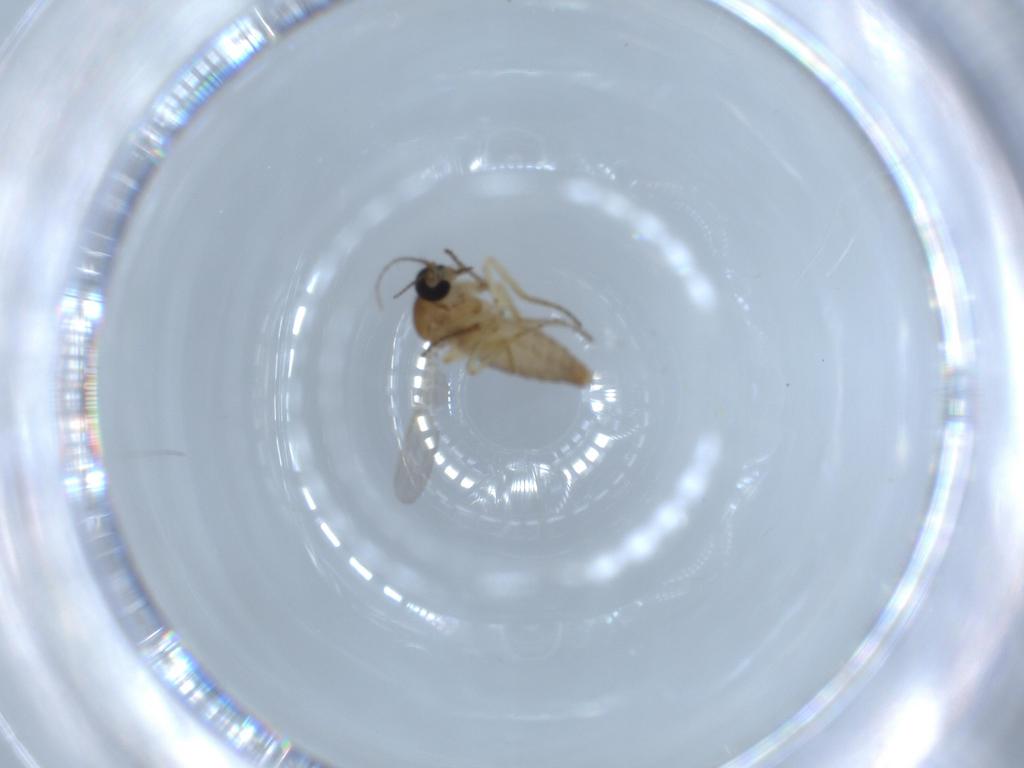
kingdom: Animalia
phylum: Arthropoda
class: Insecta
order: Diptera
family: Ceratopogonidae
